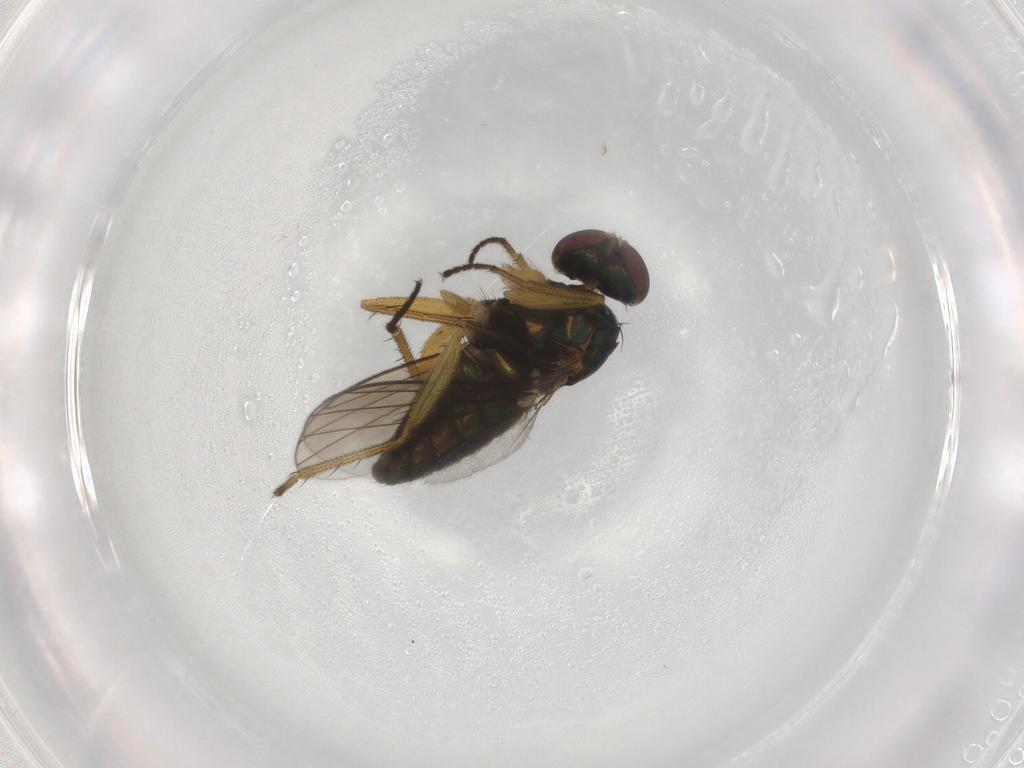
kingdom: Animalia
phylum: Arthropoda
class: Insecta
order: Diptera
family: Dolichopodidae
